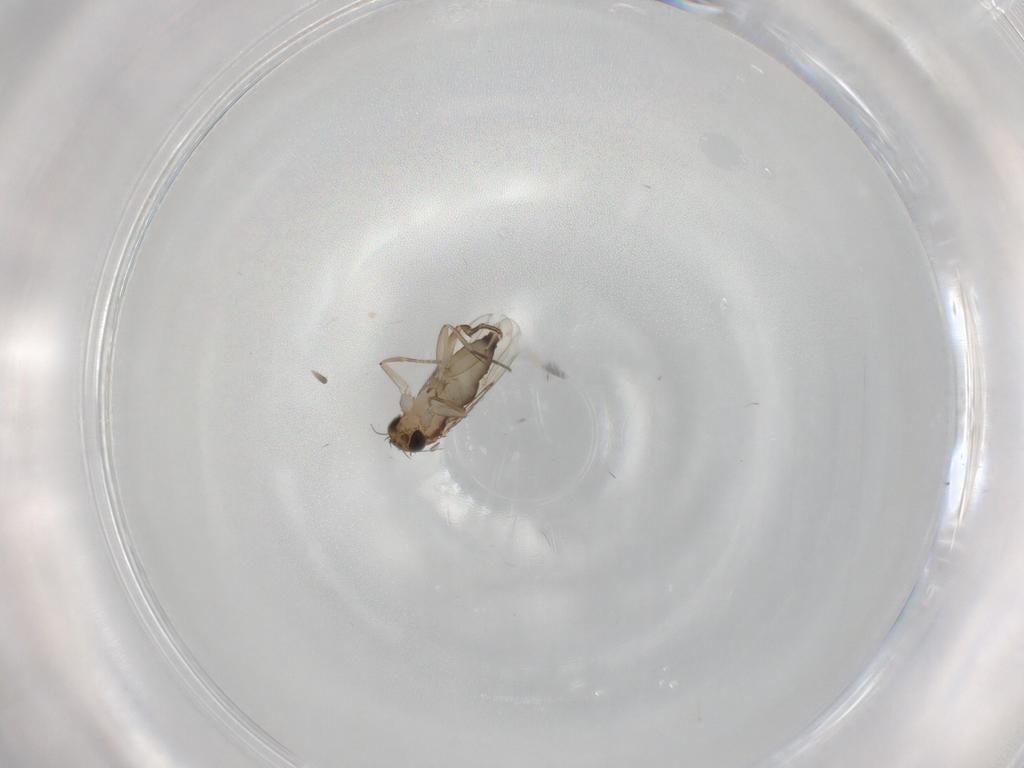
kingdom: Animalia
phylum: Arthropoda
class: Insecta
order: Diptera
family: Phoridae
